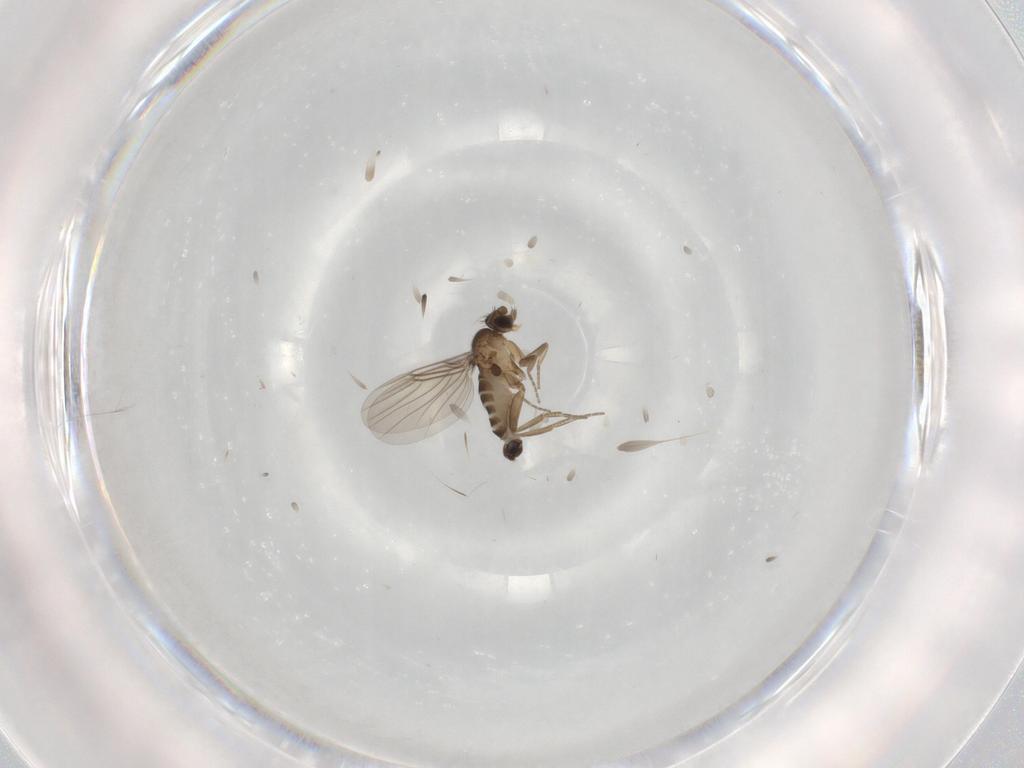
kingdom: Animalia
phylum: Arthropoda
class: Insecta
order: Diptera
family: Phoridae
